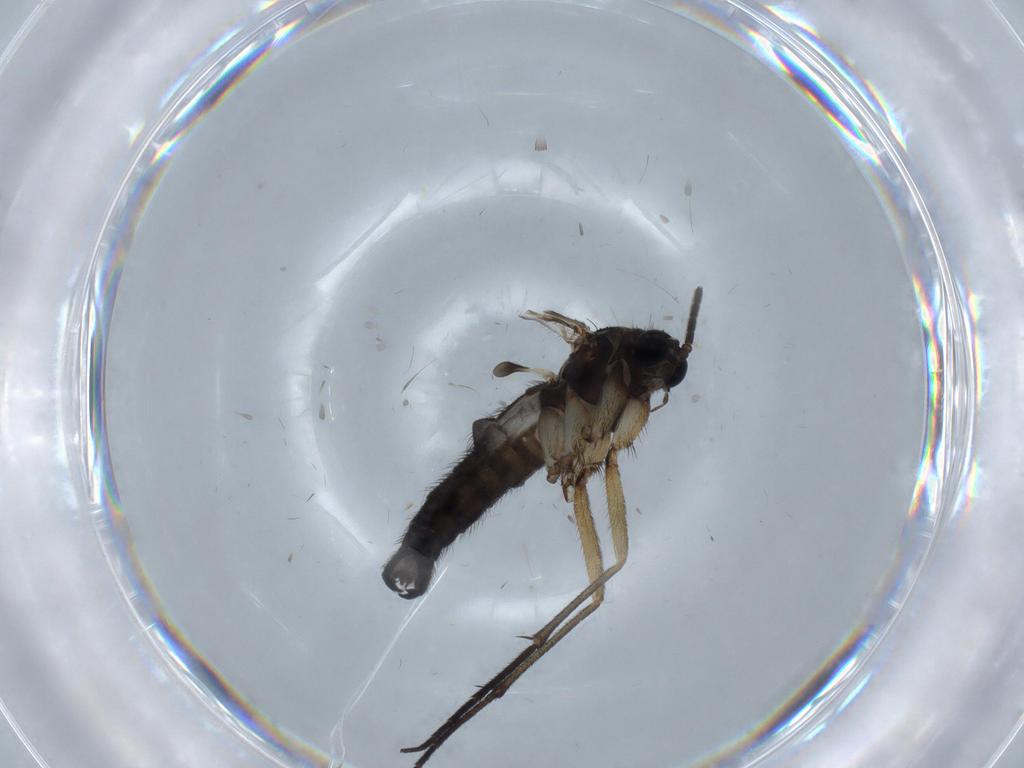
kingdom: Animalia
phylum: Arthropoda
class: Insecta
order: Diptera
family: Sciaridae
